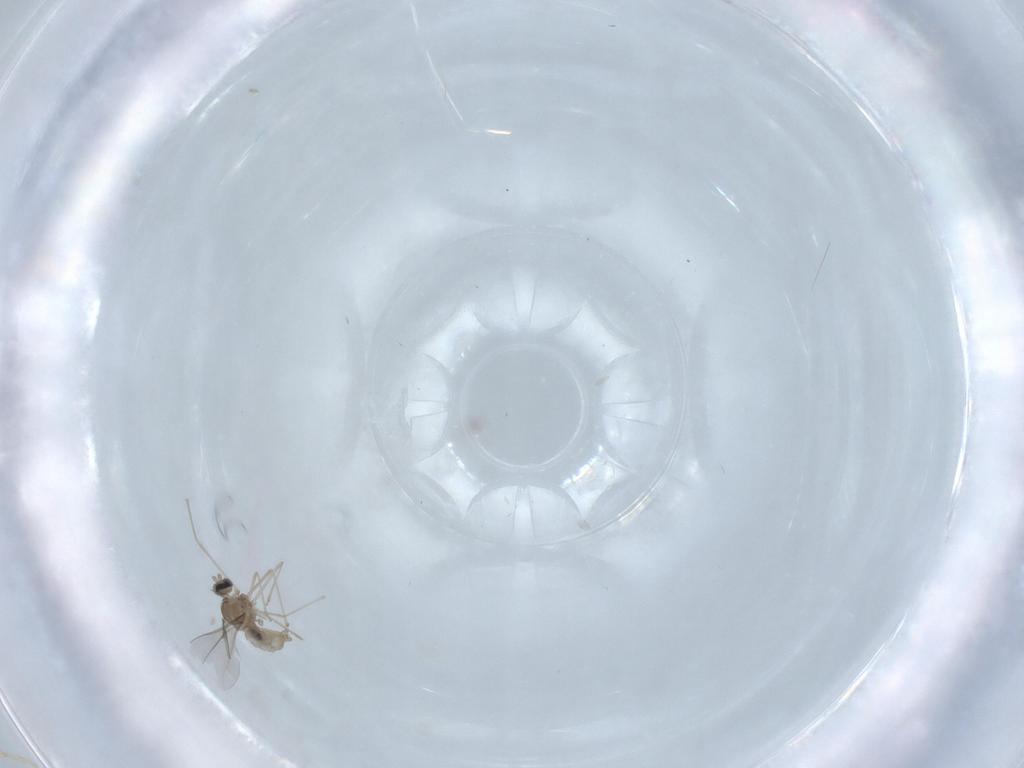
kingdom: Animalia
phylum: Arthropoda
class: Insecta
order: Diptera
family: Cecidomyiidae
